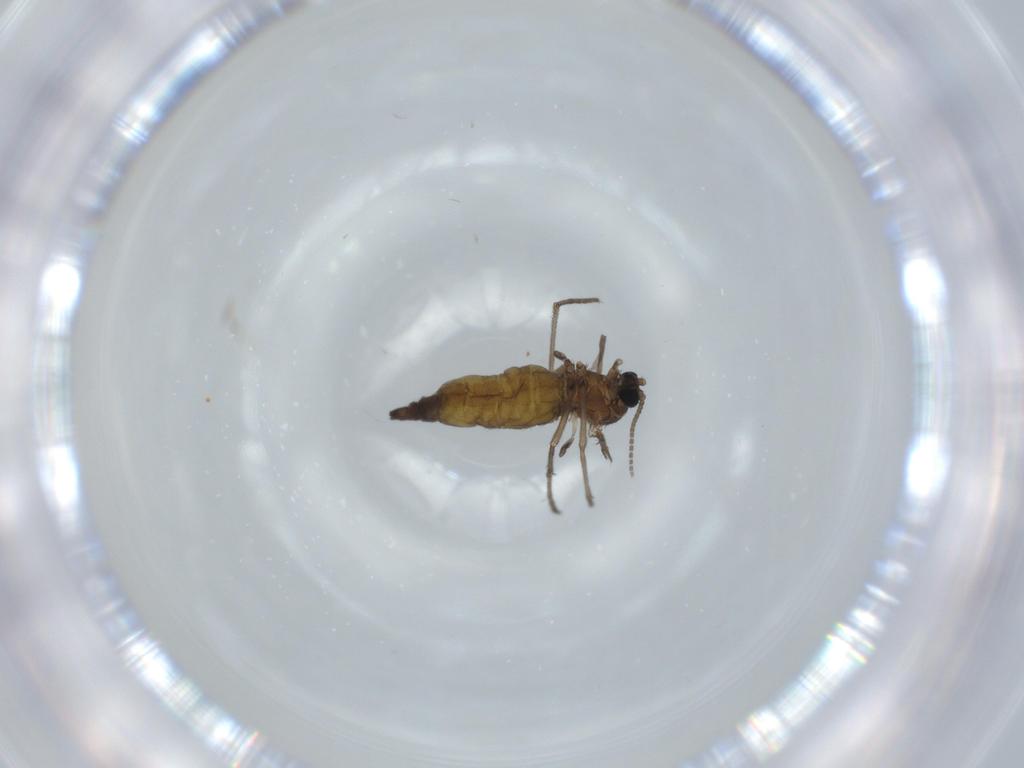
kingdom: Animalia
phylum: Arthropoda
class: Insecta
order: Diptera
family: Sciaridae
